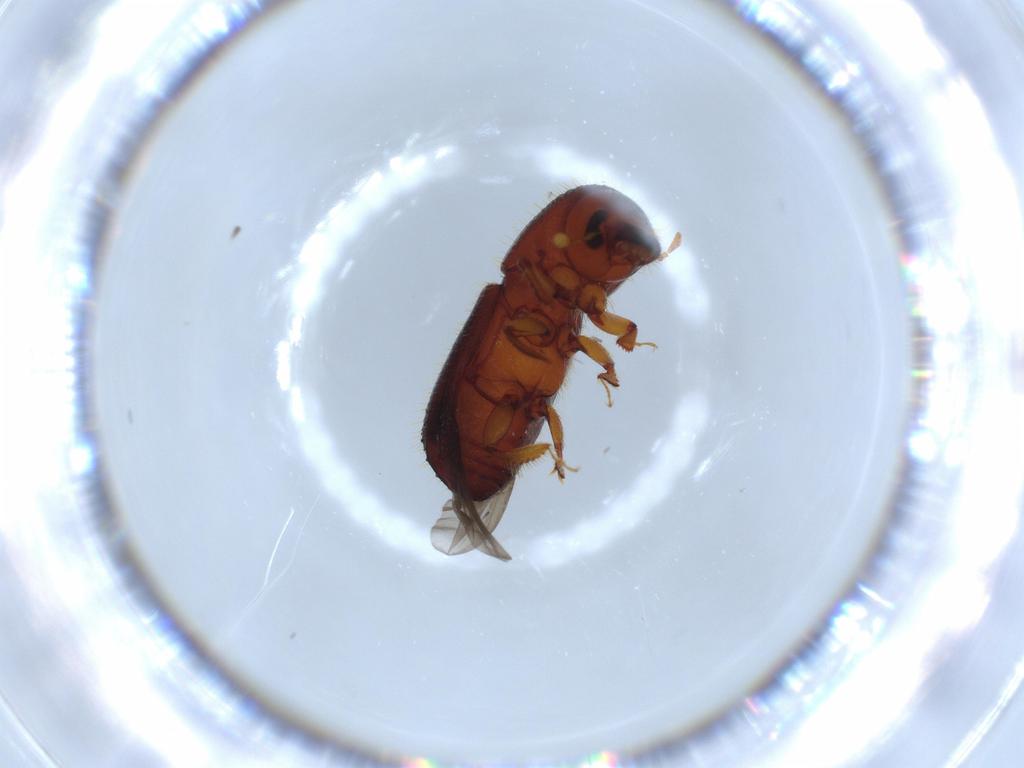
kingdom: Animalia
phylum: Arthropoda
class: Insecta
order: Coleoptera
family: Curculionidae
